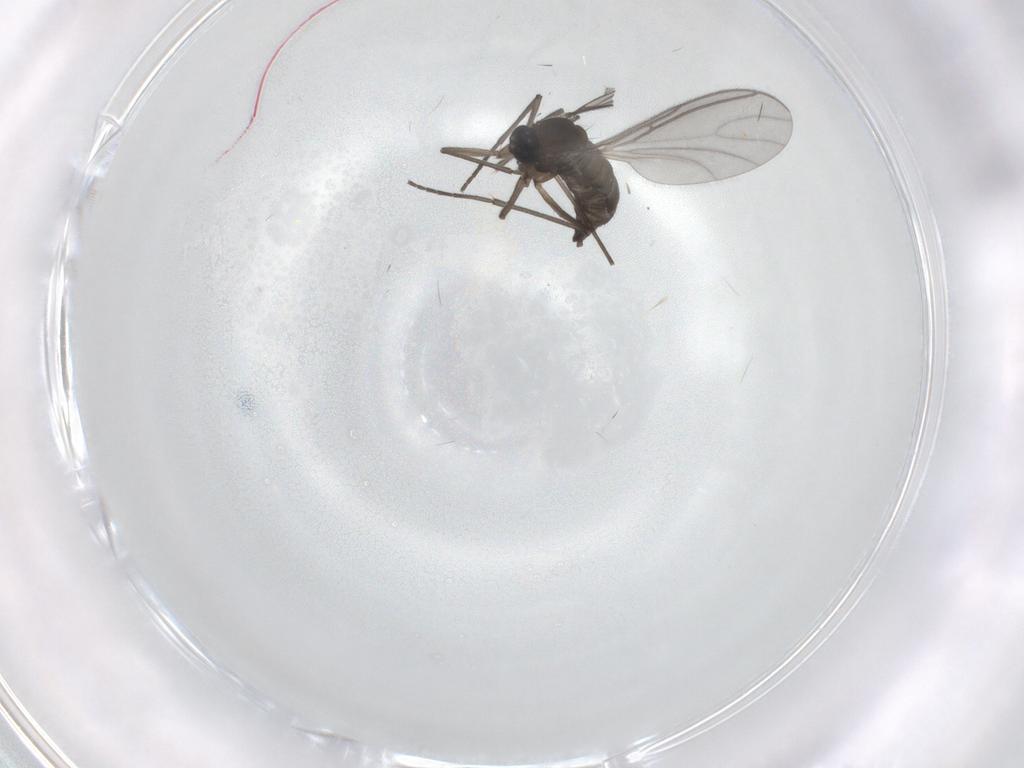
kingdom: Animalia
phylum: Arthropoda
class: Insecta
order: Diptera
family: Sciaridae
